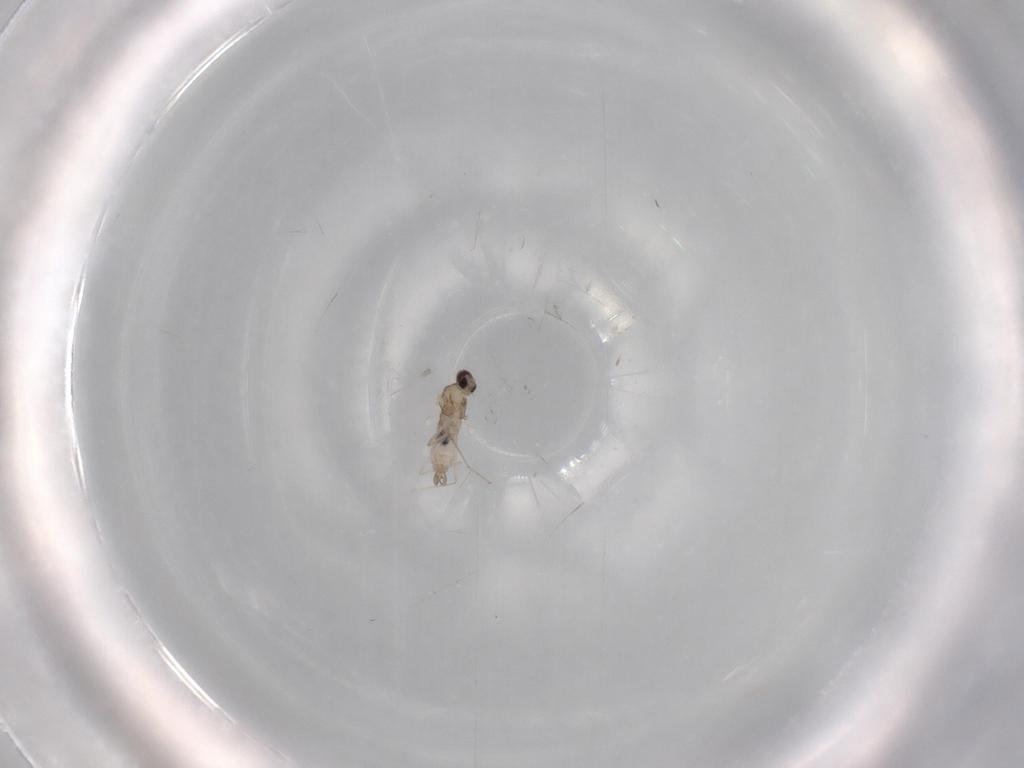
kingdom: Animalia
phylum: Arthropoda
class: Insecta
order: Diptera
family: Cecidomyiidae
